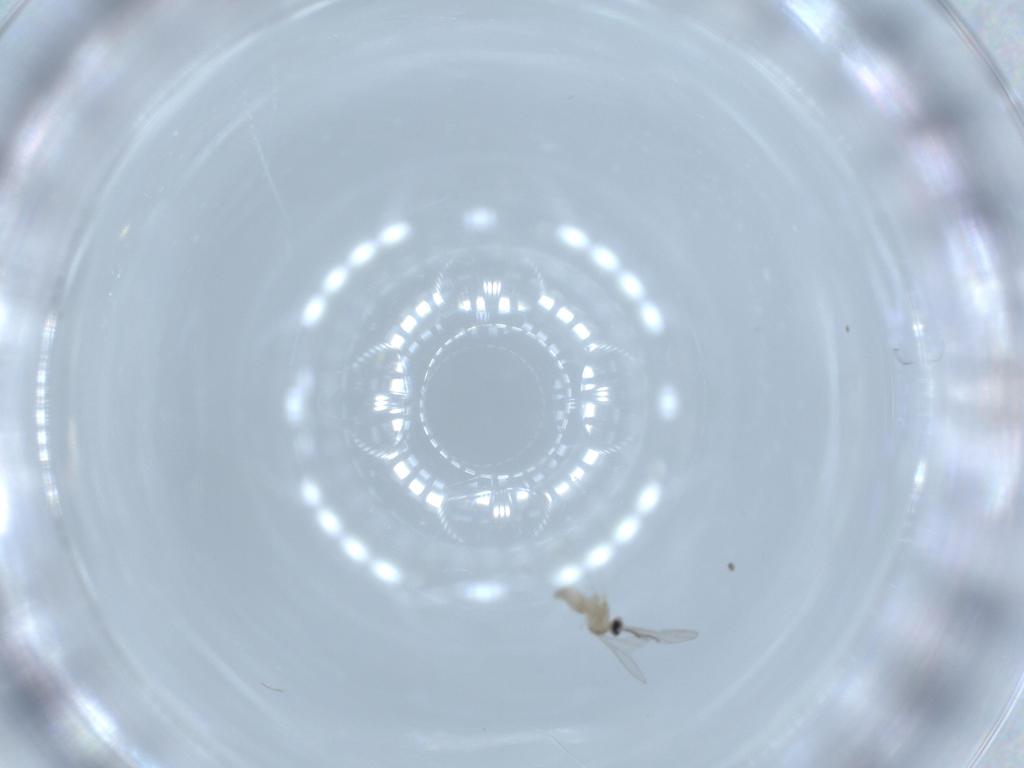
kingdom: Animalia
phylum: Arthropoda
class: Insecta
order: Diptera
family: Cecidomyiidae
